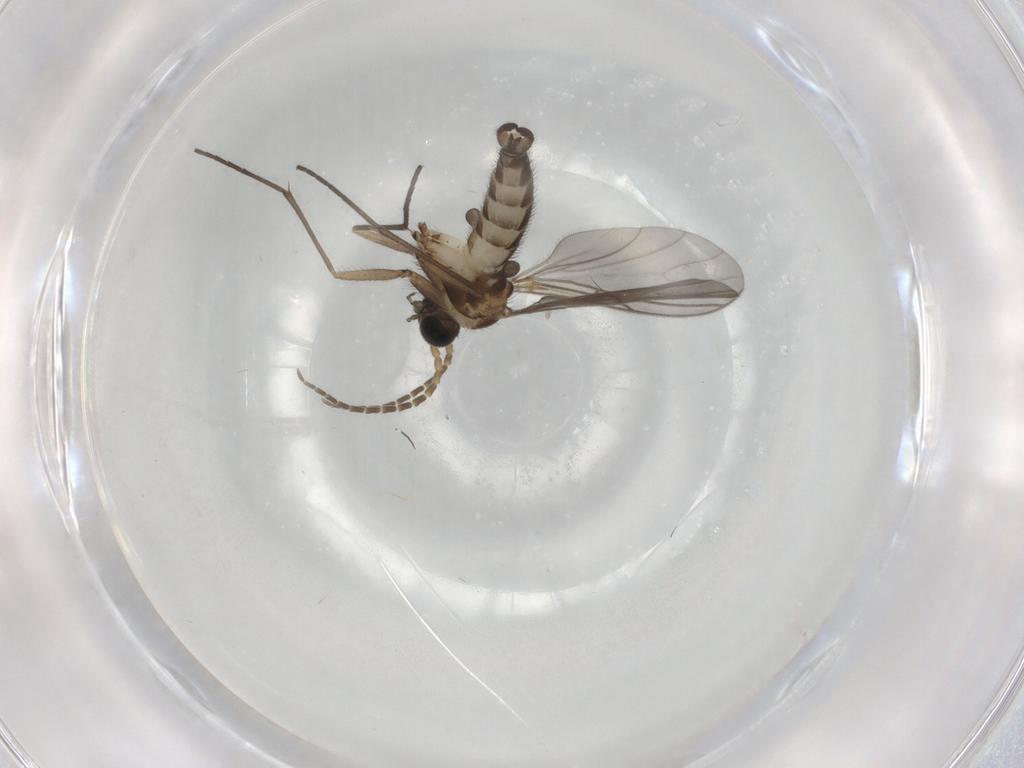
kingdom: Animalia
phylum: Arthropoda
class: Insecta
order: Diptera
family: Sciaridae
